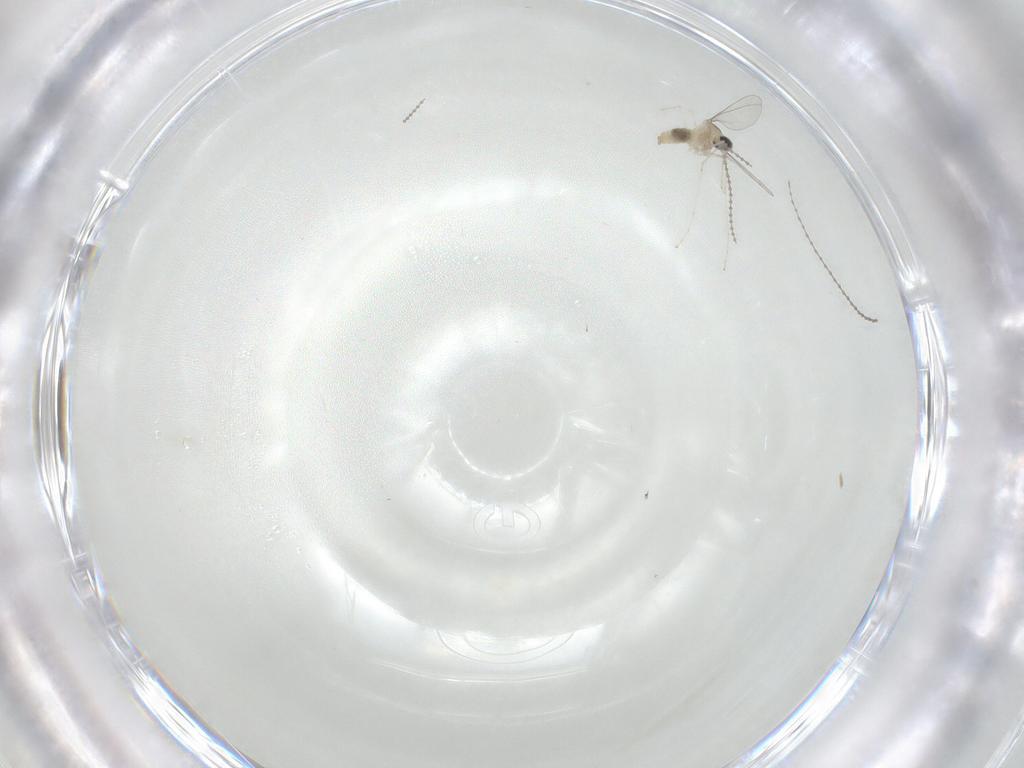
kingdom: Animalia
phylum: Arthropoda
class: Insecta
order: Diptera
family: Cecidomyiidae
